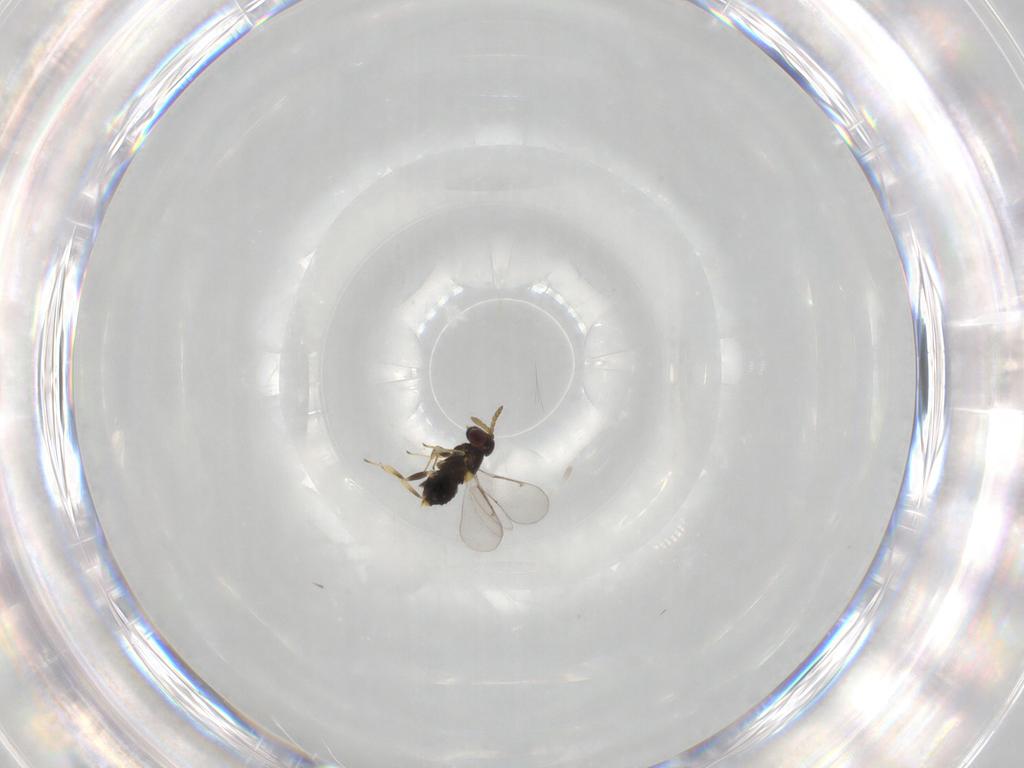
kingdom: Animalia
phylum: Arthropoda
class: Insecta
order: Hymenoptera
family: Aphelinidae
